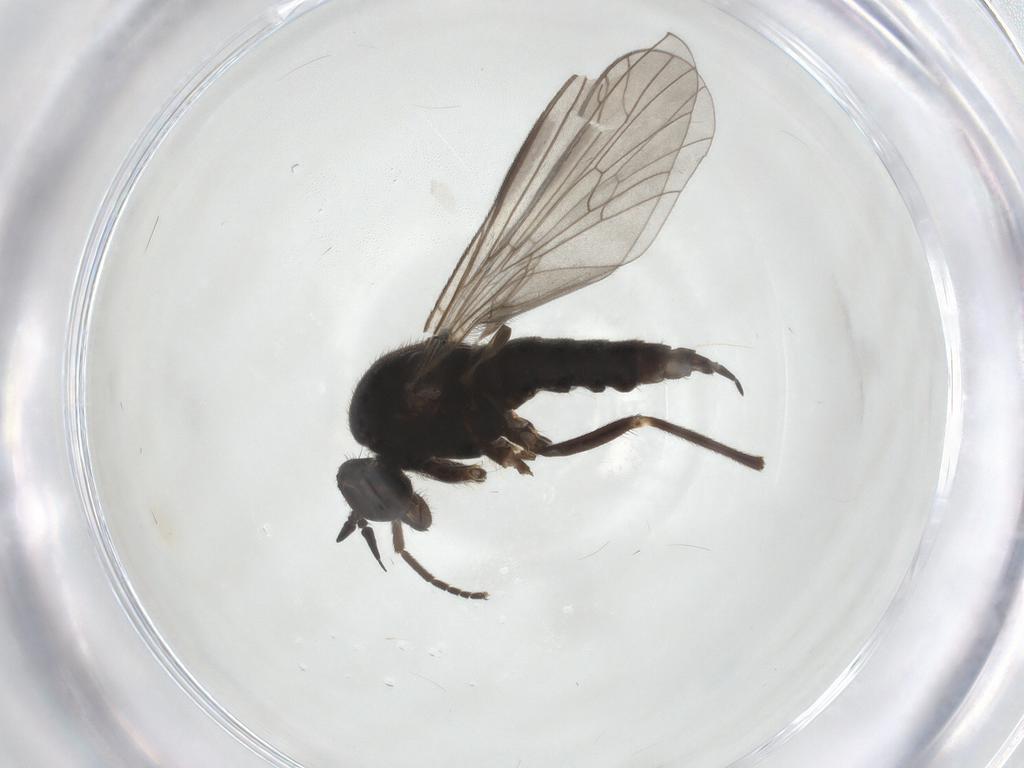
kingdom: Animalia
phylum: Arthropoda
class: Insecta
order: Diptera
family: Empididae
